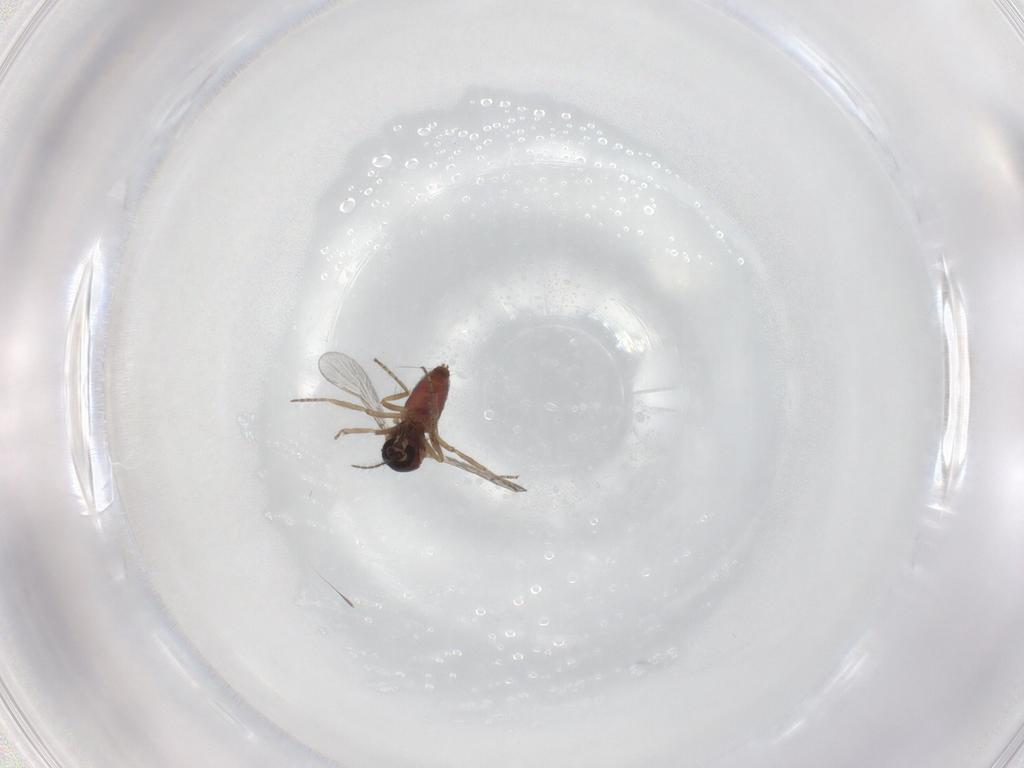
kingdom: Animalia
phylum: Arthropoda
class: Insecta
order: Diptera
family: Ceratopogonidae
